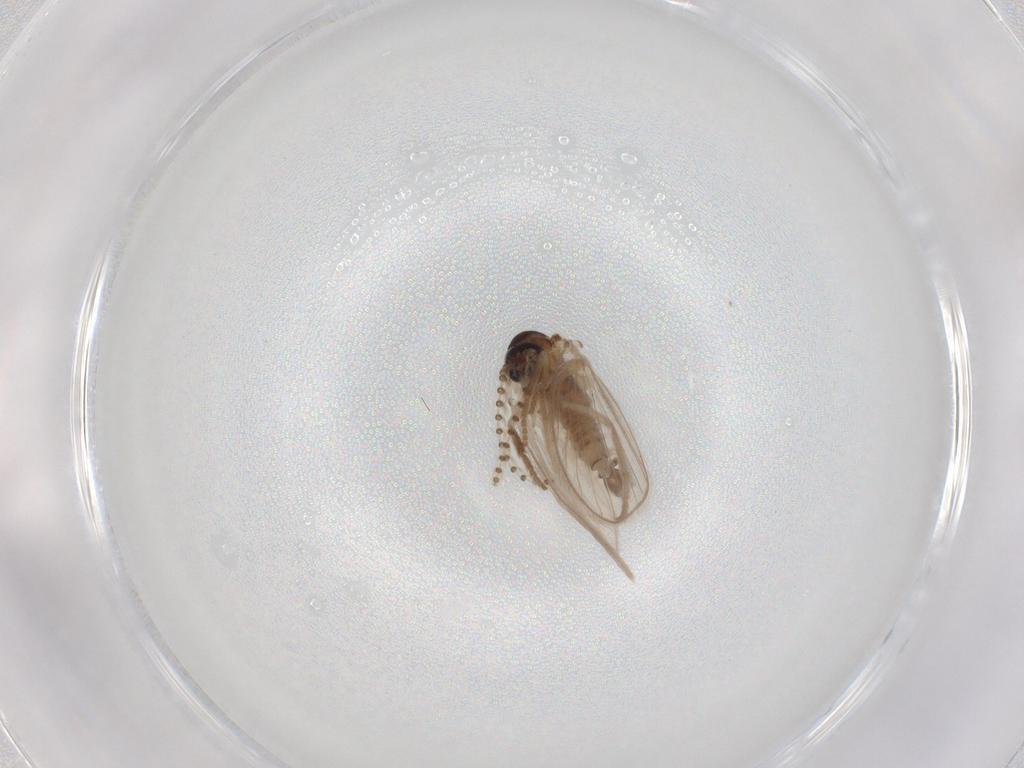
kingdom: Animalia
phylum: Arthropoda
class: Insecta
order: Diptera
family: Psychodidae
